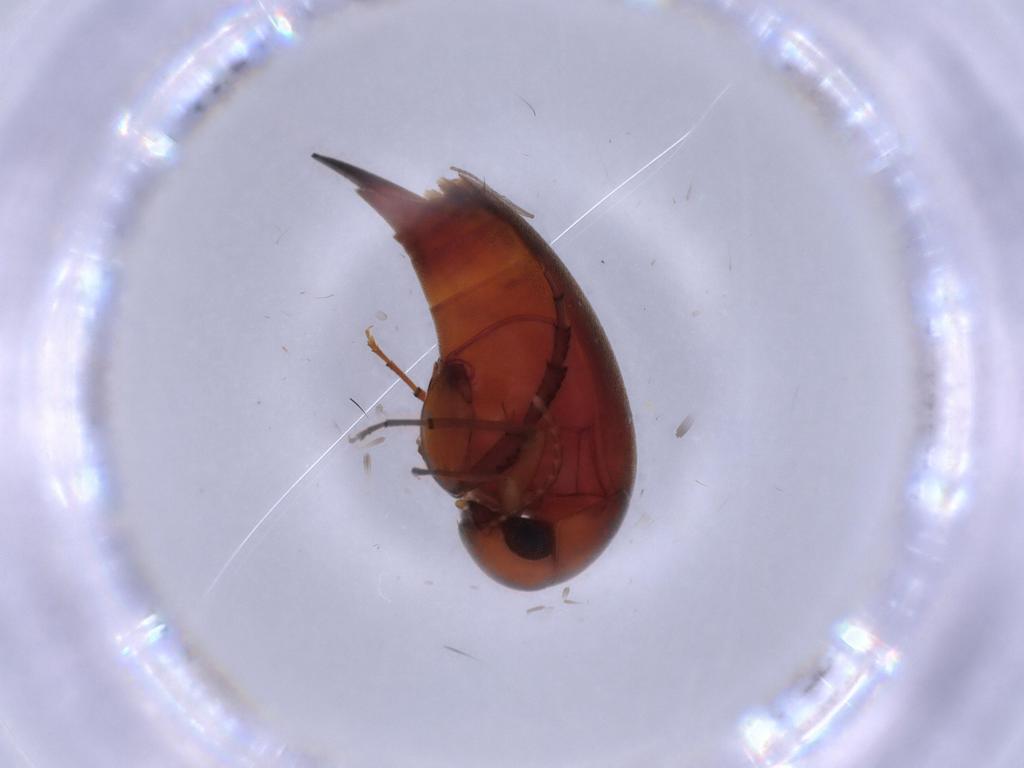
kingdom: Animalia
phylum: Arthropoda
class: Insecta
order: Coleoptera
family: Mordellidae
